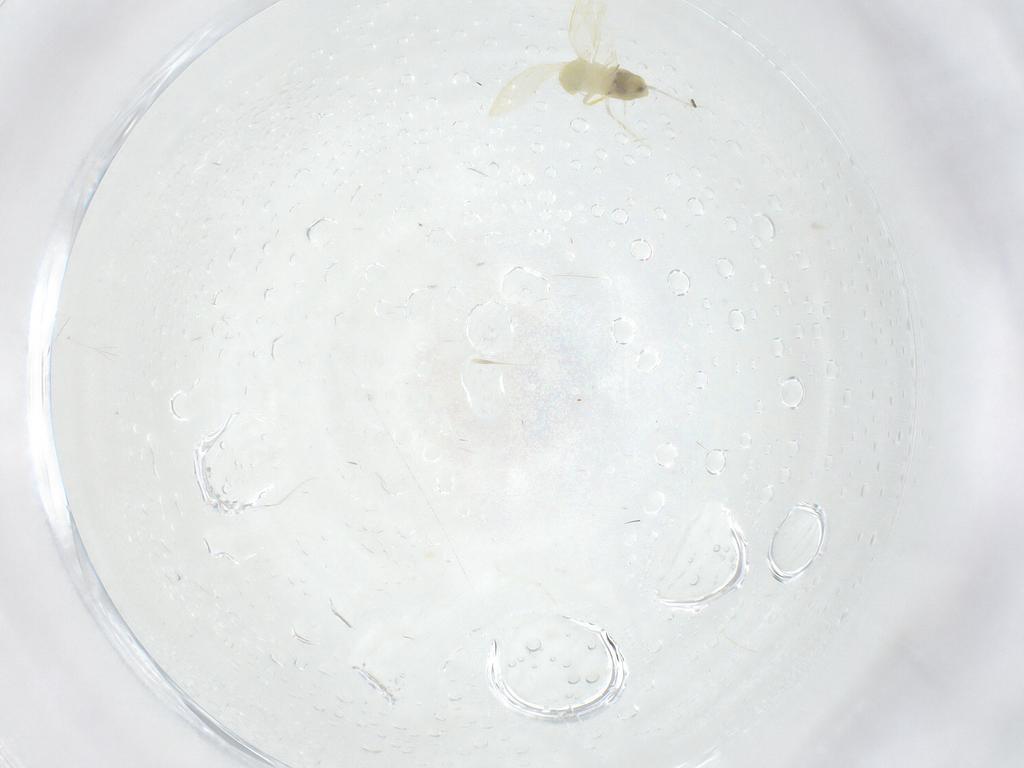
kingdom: Animalia
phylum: Arthropoda
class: Insecta
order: Hemiptera
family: Aleyrodidae
